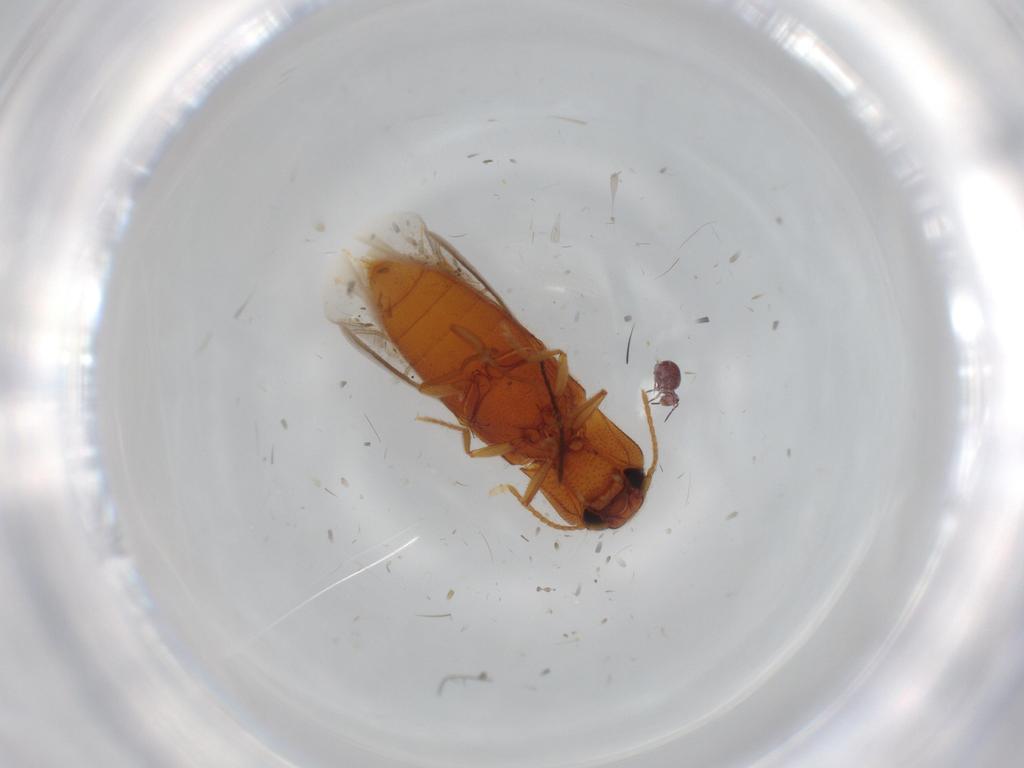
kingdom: Animalia
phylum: Arthropoda
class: Insecta
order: Coleoptera
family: Elateridae
